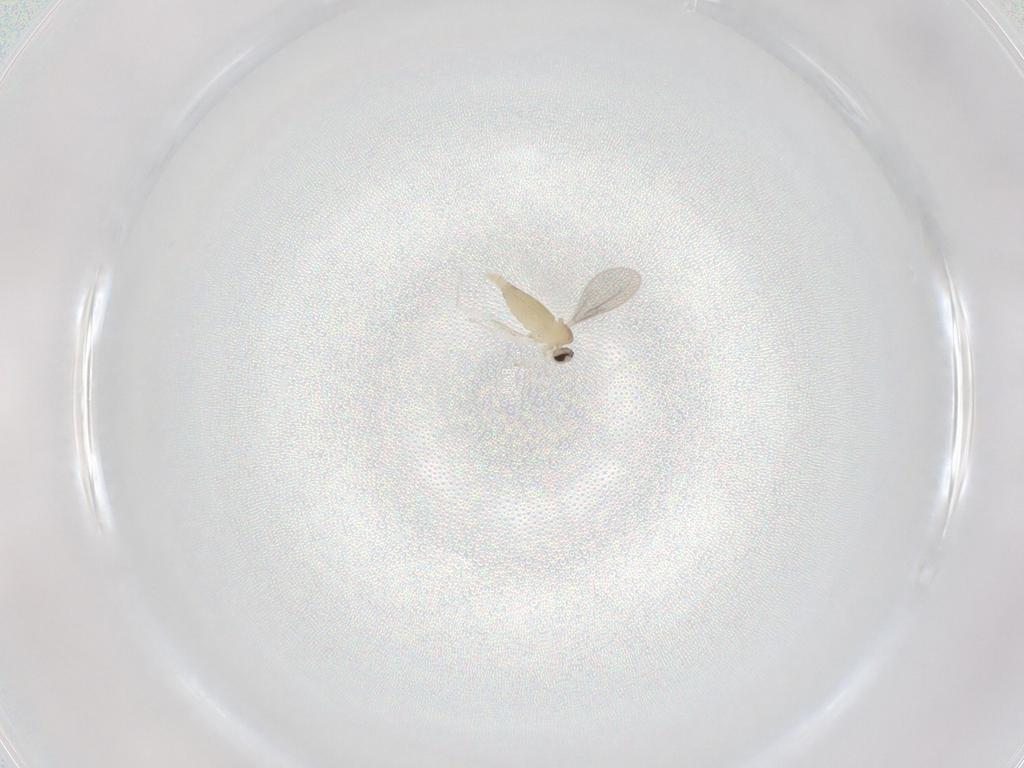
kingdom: Animalia
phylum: Arthropoda
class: Insecta
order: Diptera
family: Cecidomyiidae
